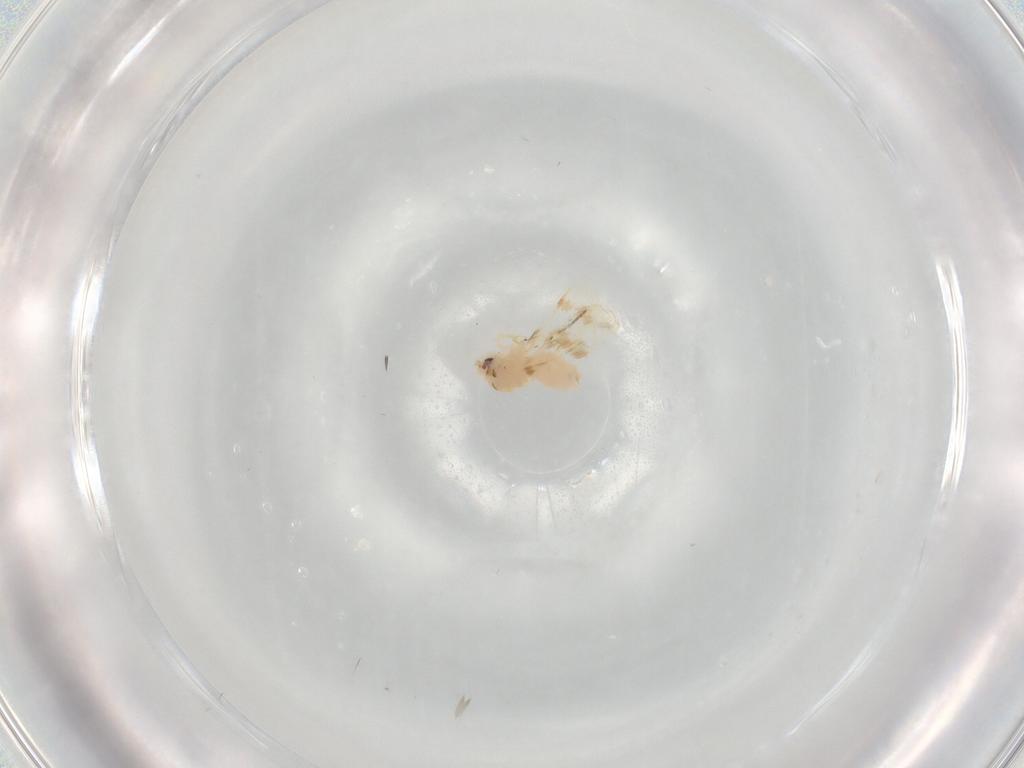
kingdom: Animalia
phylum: Arthropoda
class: Insecta
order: Hemiptera
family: Aleyrodidae
